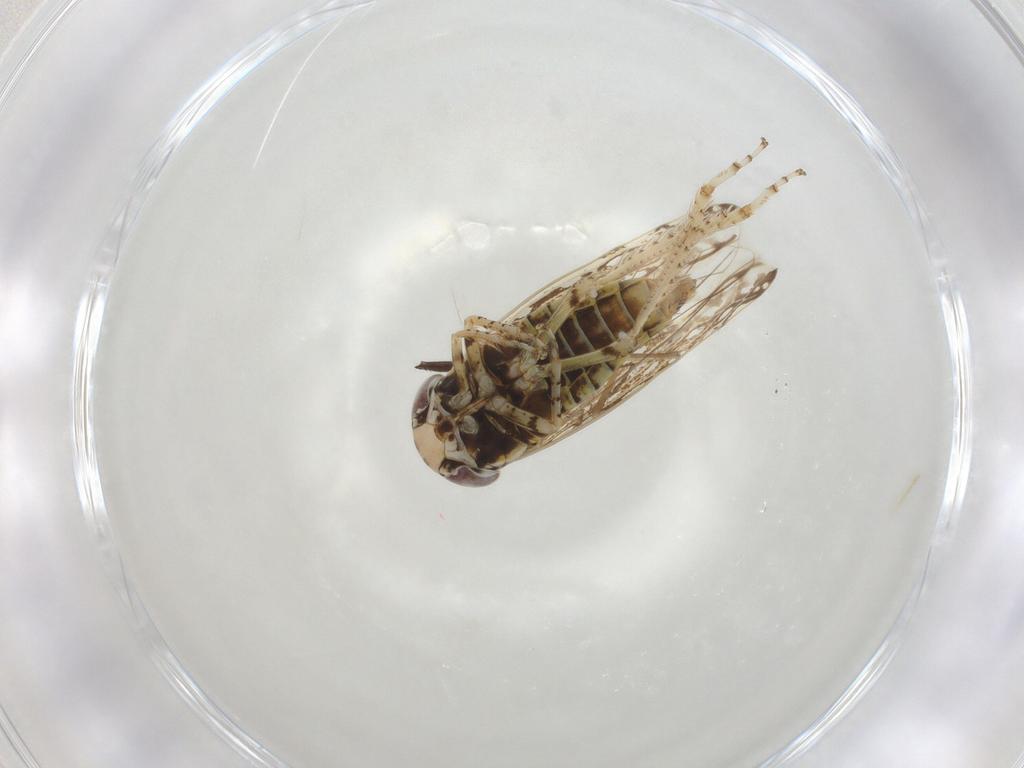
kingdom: Animalia
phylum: Arthropoda
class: Insecta
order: Hemiptera
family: Cicadellidae
